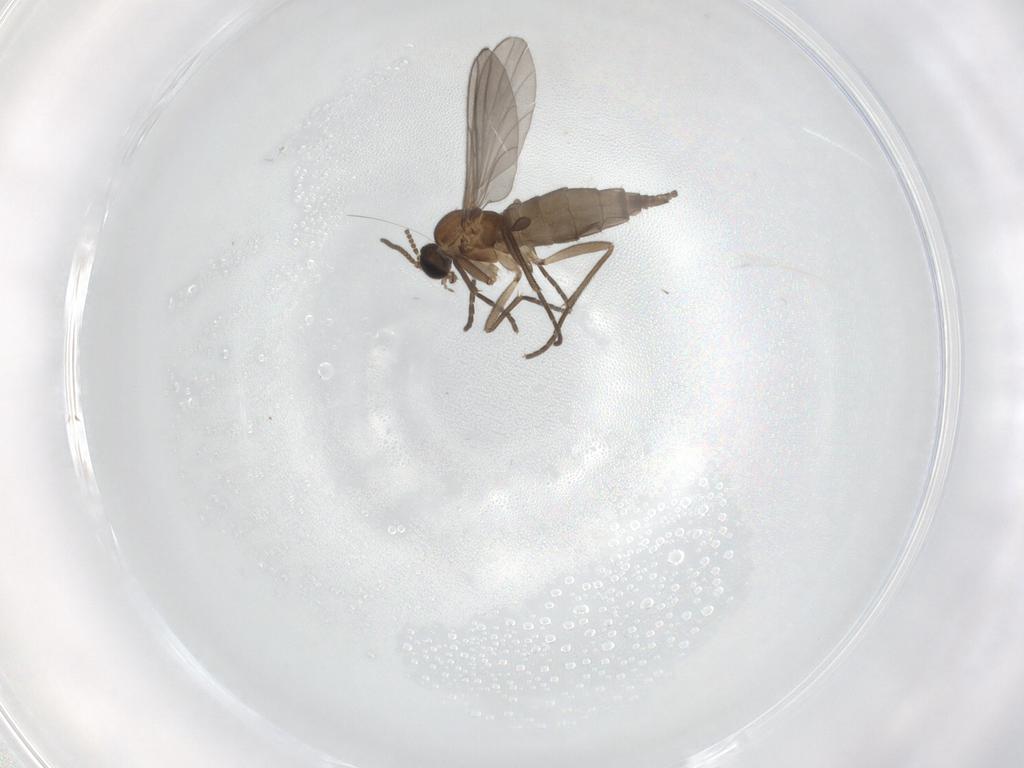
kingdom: Animalia
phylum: Arthropoda
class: Insecta
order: Diptera
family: Sciaridae
